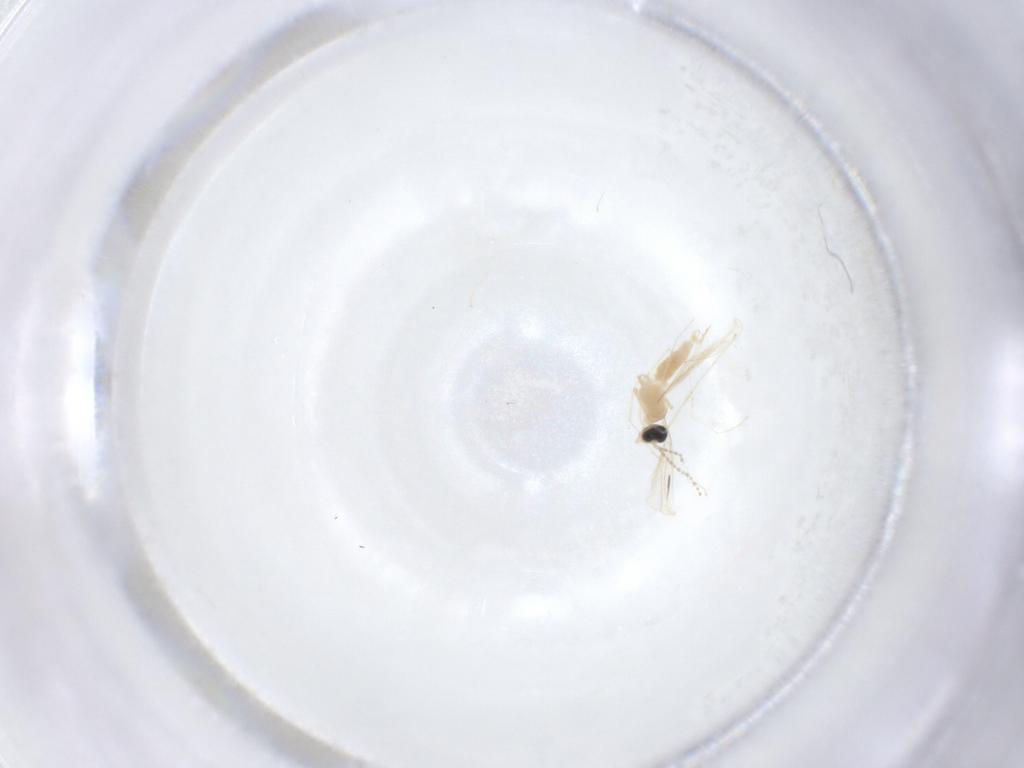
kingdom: Animalia
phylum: Arthropoda
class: Insecta
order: Diptera
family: Cecidomyiidae
